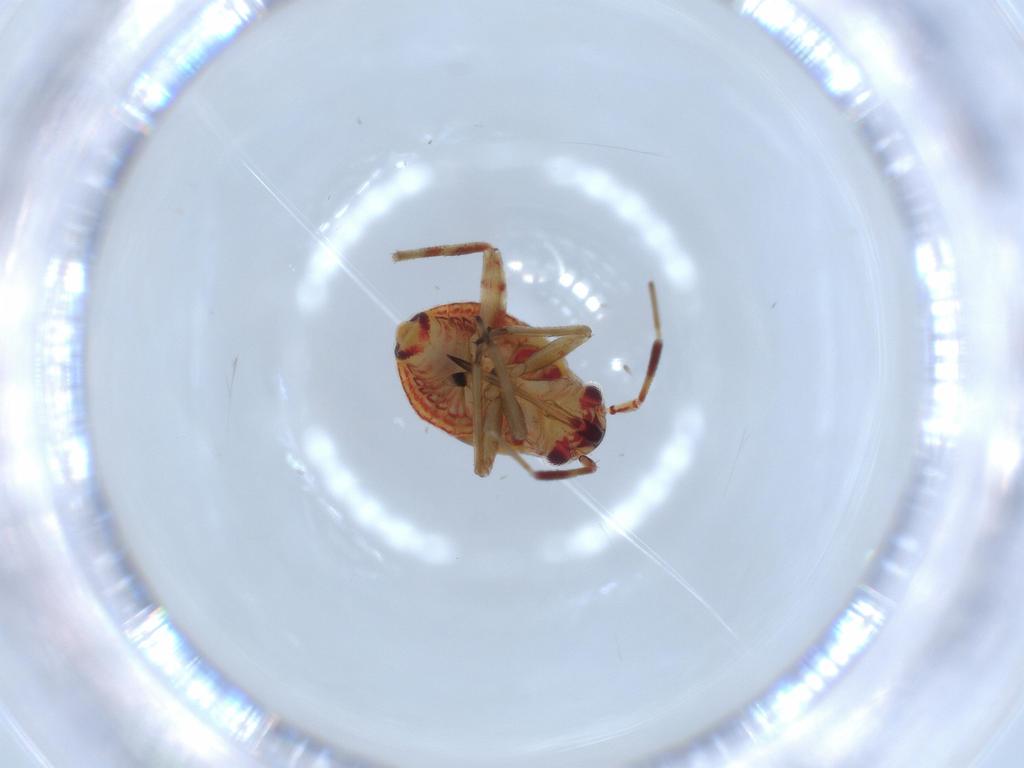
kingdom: Animalia
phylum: Arthropoda
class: Insecta
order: Hemiptera
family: Miridae
